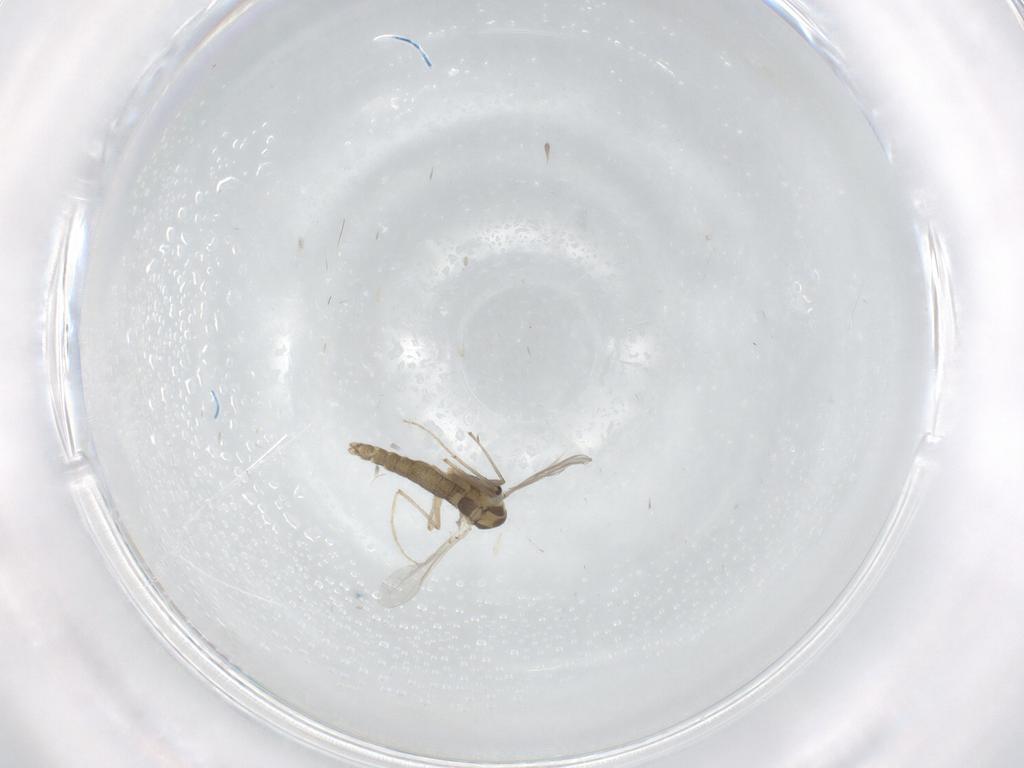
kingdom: Animalia
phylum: Arthropoda
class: Insecta
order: Diptera
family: Chironomidae
